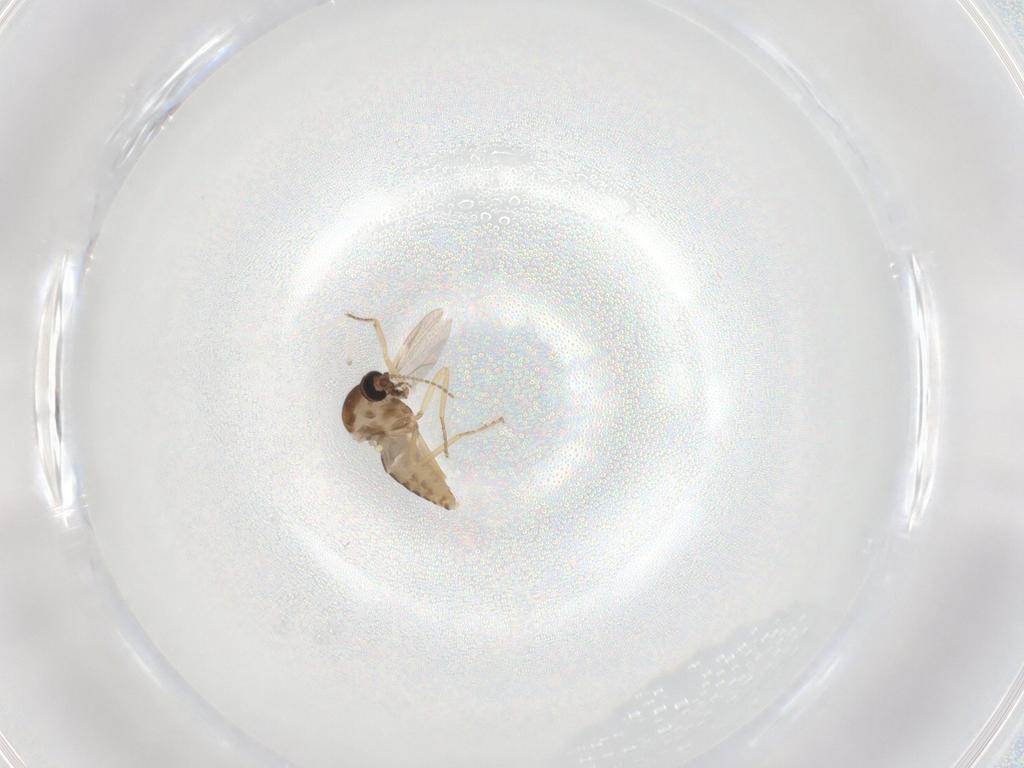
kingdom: Animalia
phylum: Arthropoda
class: Insecta
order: Diptera
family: Ceratopogonidae
